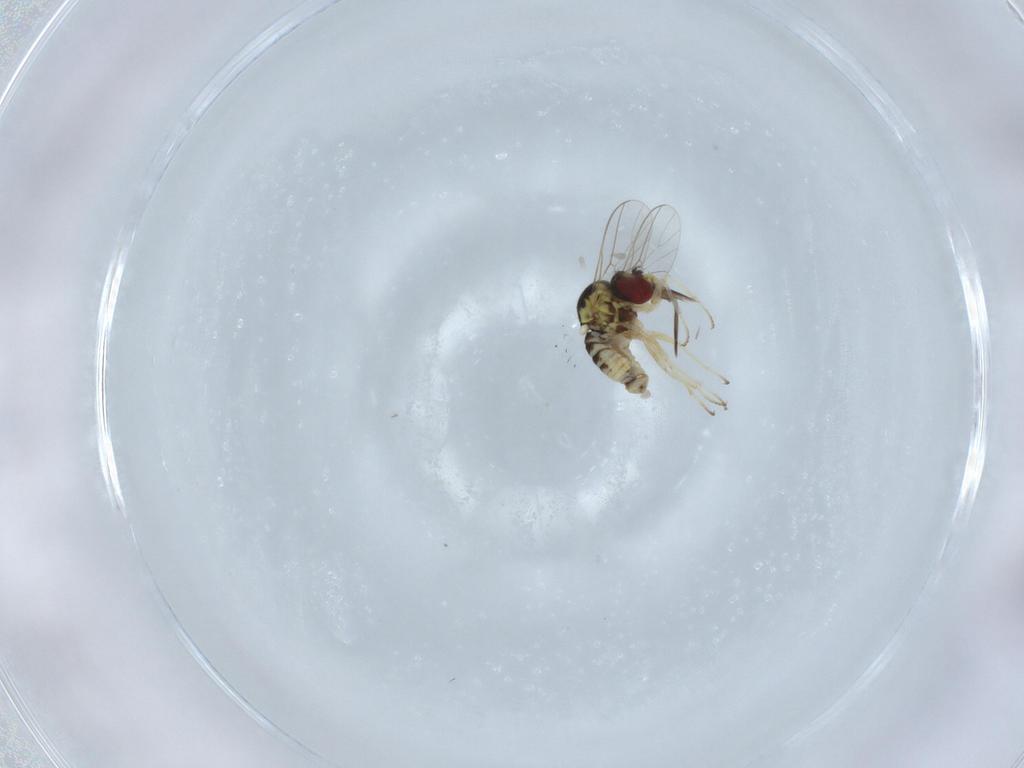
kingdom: Animalia
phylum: Arthropoda
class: Insecta
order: Diptera
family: Bombyliidae
